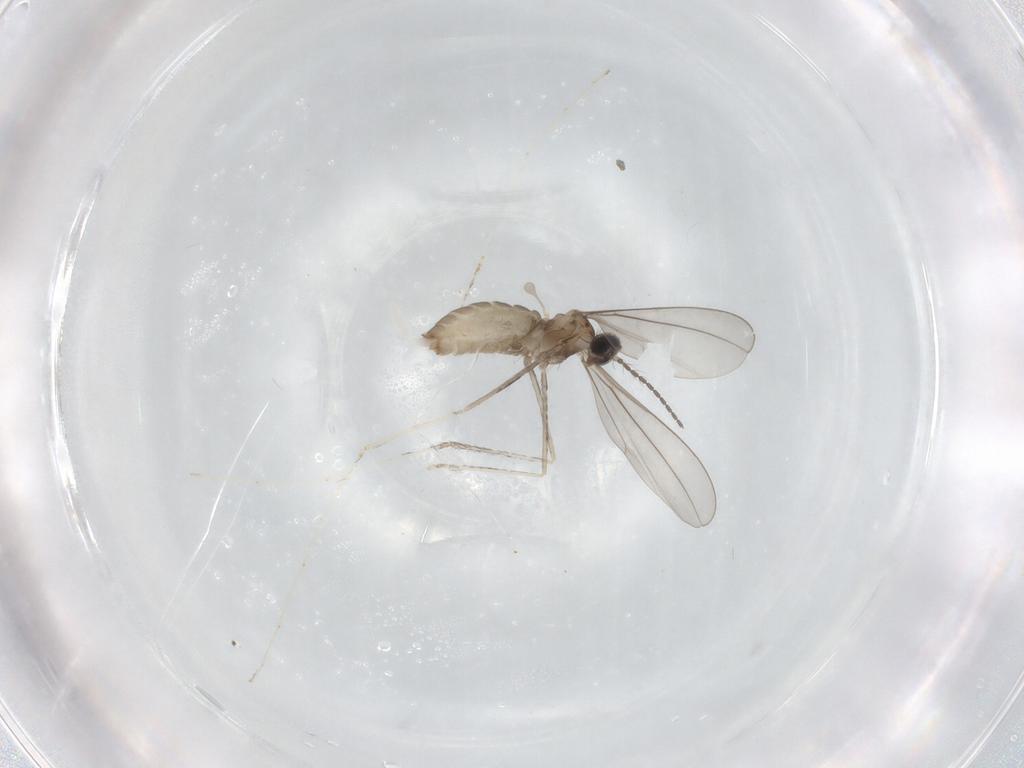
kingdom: Animalia
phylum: Arthropoda
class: Insecta
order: Diptera
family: Cecidomyiidae
